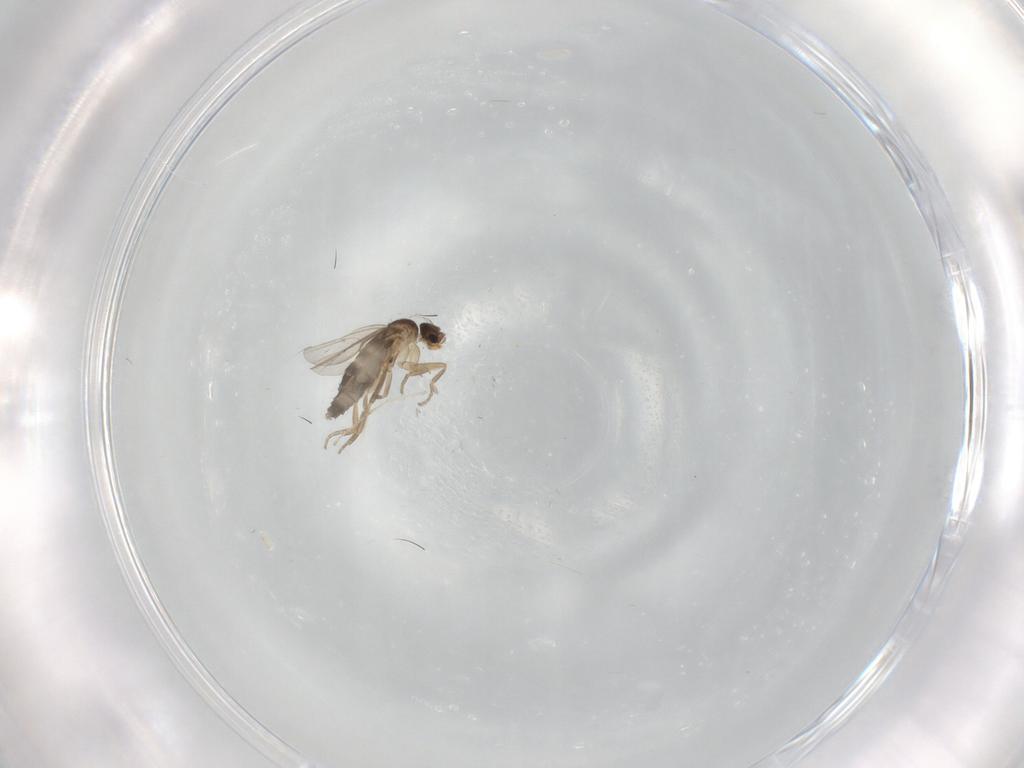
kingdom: Animalia
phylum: Arthropoda
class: Insecta
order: Diptera
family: Phoridae
